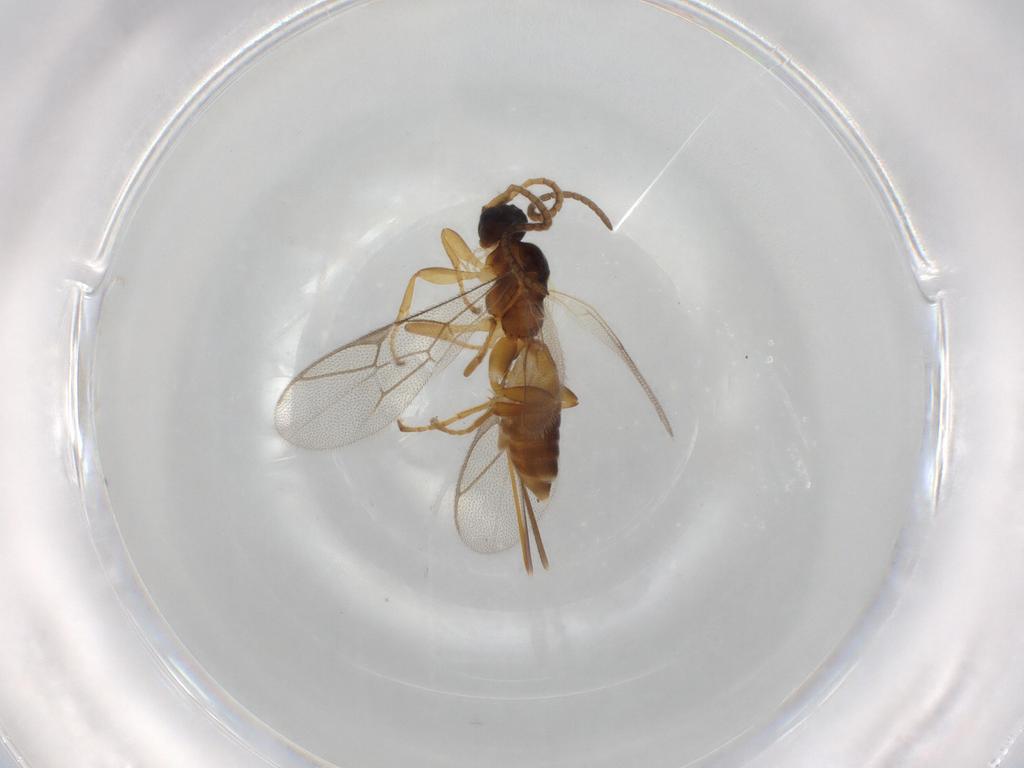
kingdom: Animalia
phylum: Arthropoda
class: Insecta
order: Hymenoptera
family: Ichneumonidae
